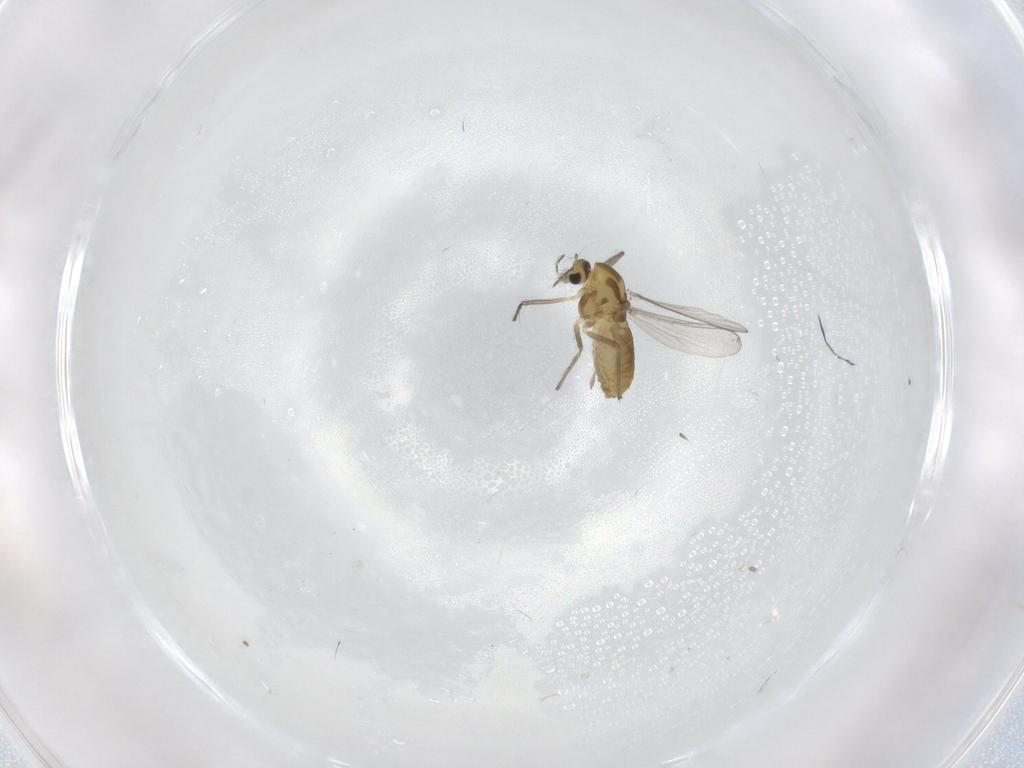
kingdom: Animalia
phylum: Arthropoda
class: Insecta
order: Diptera
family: Chironomidae
